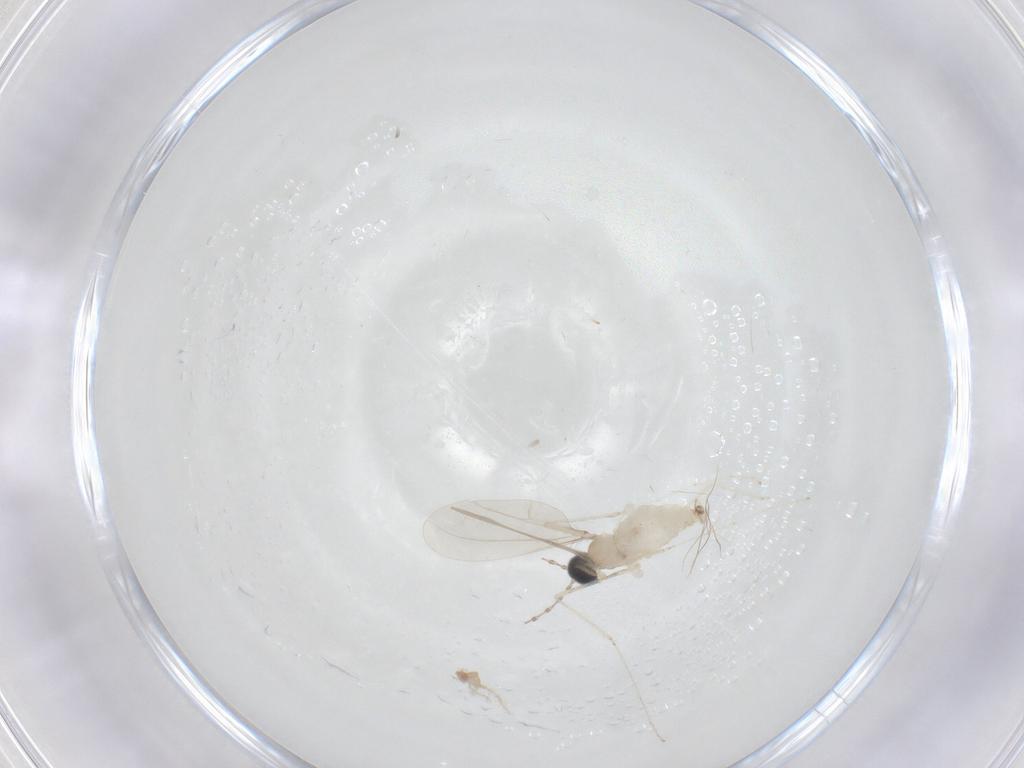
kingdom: Animalia
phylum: Arthropoda
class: Insecta
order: Diptera
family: Cecidomyiidae
